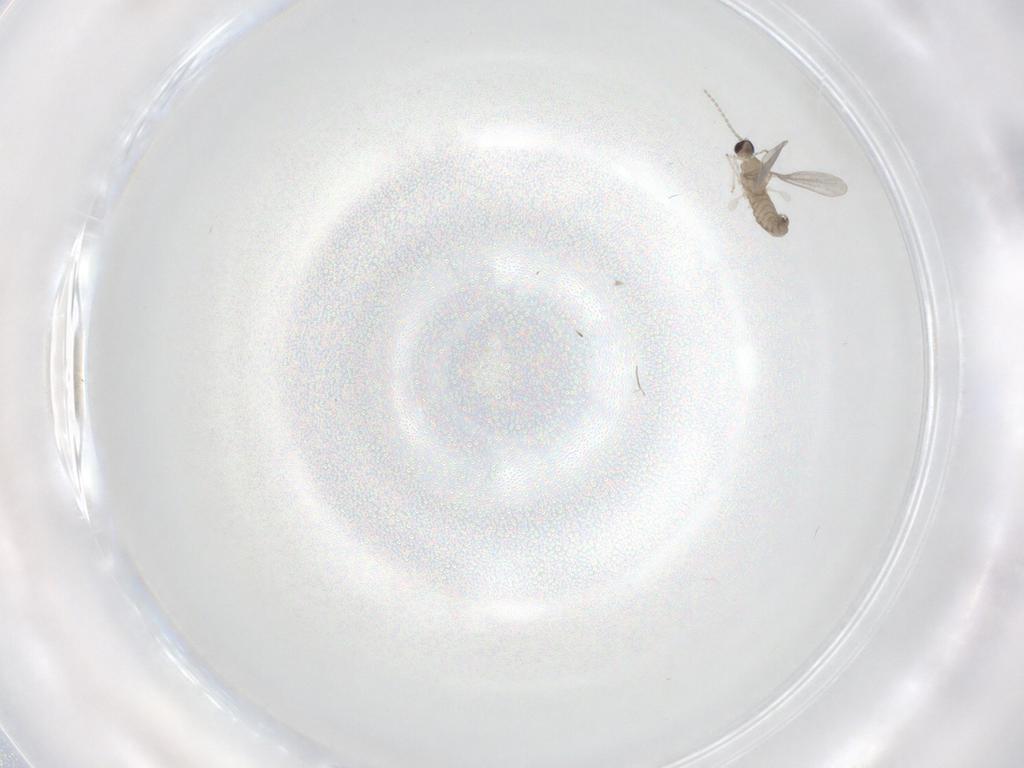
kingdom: Animalia
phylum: Arthropoda
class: Insecta
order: Diptera
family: Cecidomyiidae
